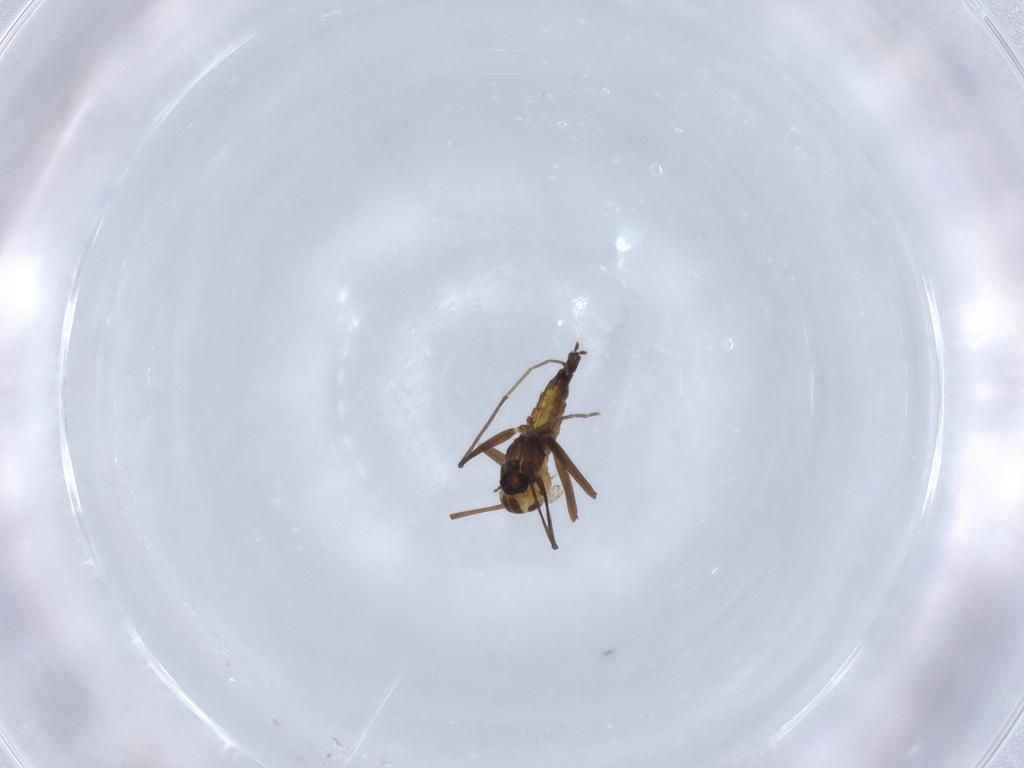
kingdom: Animalia
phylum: Arthropoda
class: Insecta
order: Diptera
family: Chironomidae
